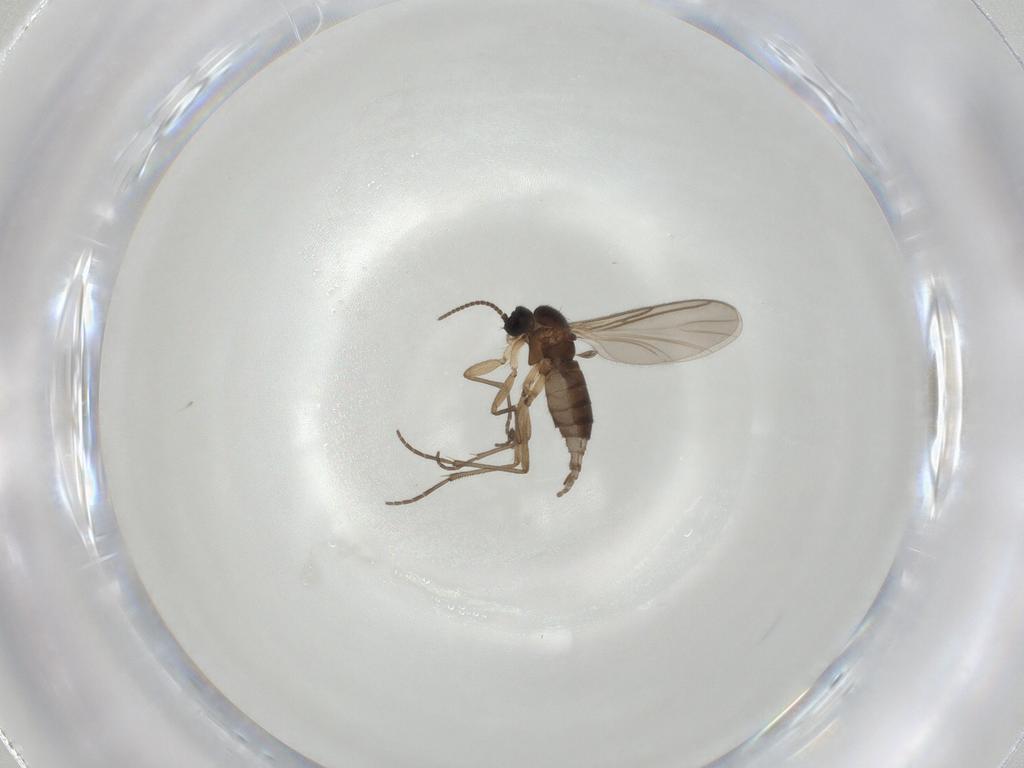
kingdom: Animalia
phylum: Arthropoda
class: Insecta
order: Diptera
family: Sciaridae
